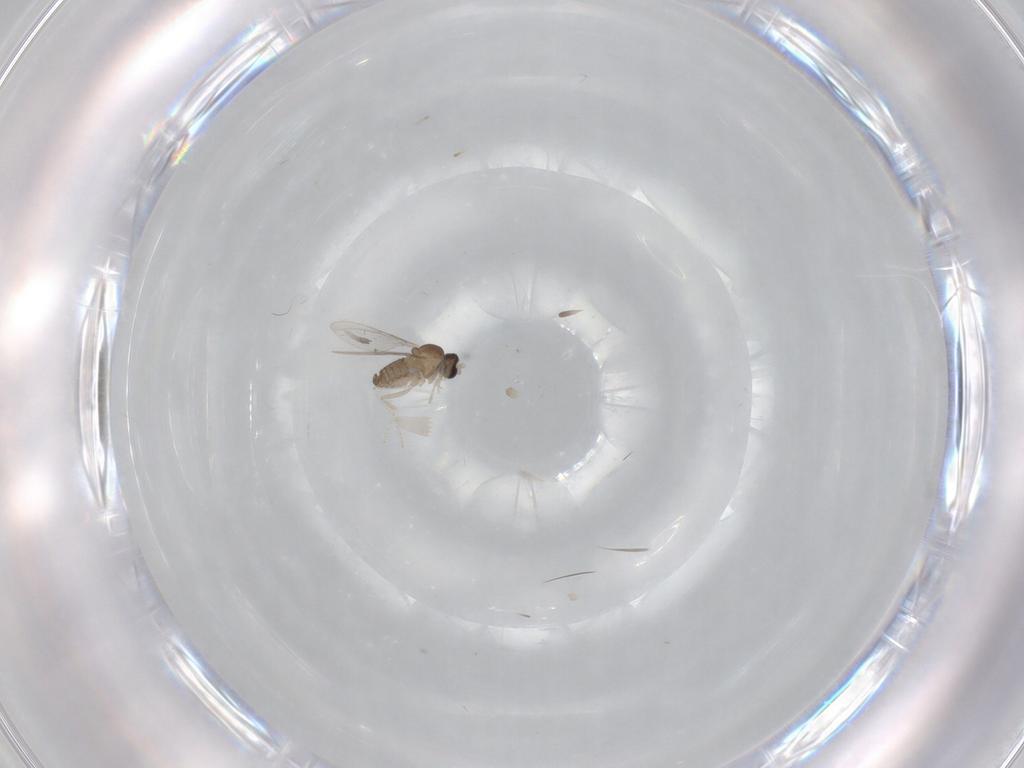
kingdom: Animalia
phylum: Arthropoda
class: Insecta
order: Diptera
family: Cecidomyiidae
